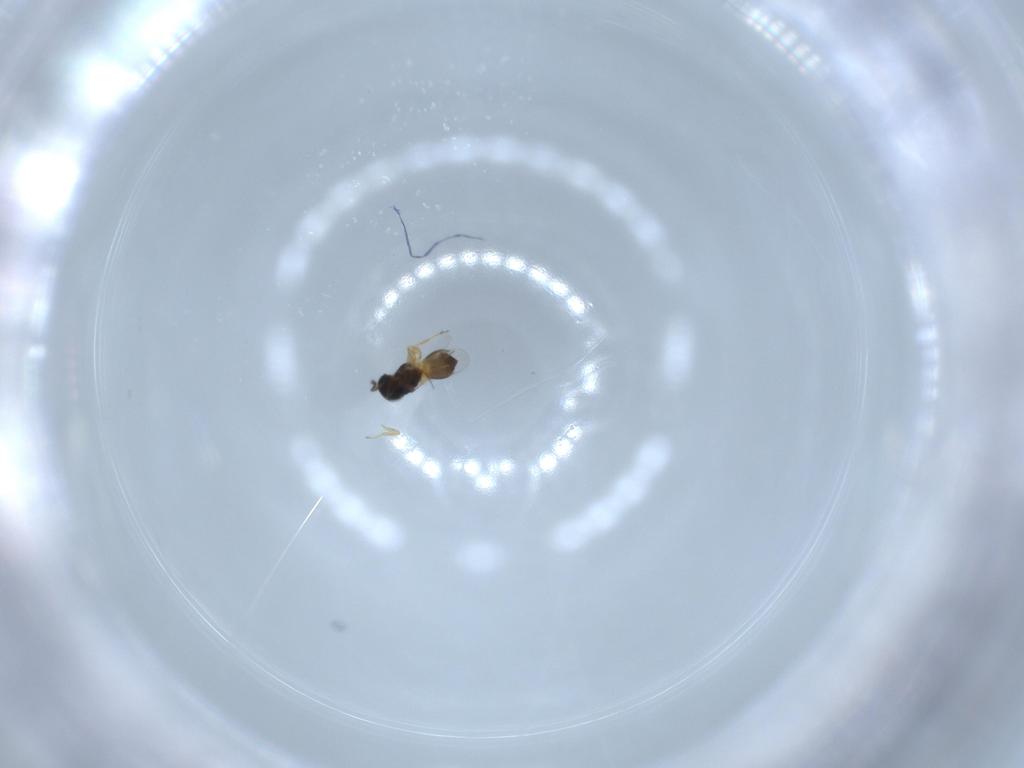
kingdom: Animalia
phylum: Arthropoda
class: Insecta
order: Hymenoptera
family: Scelionidae
